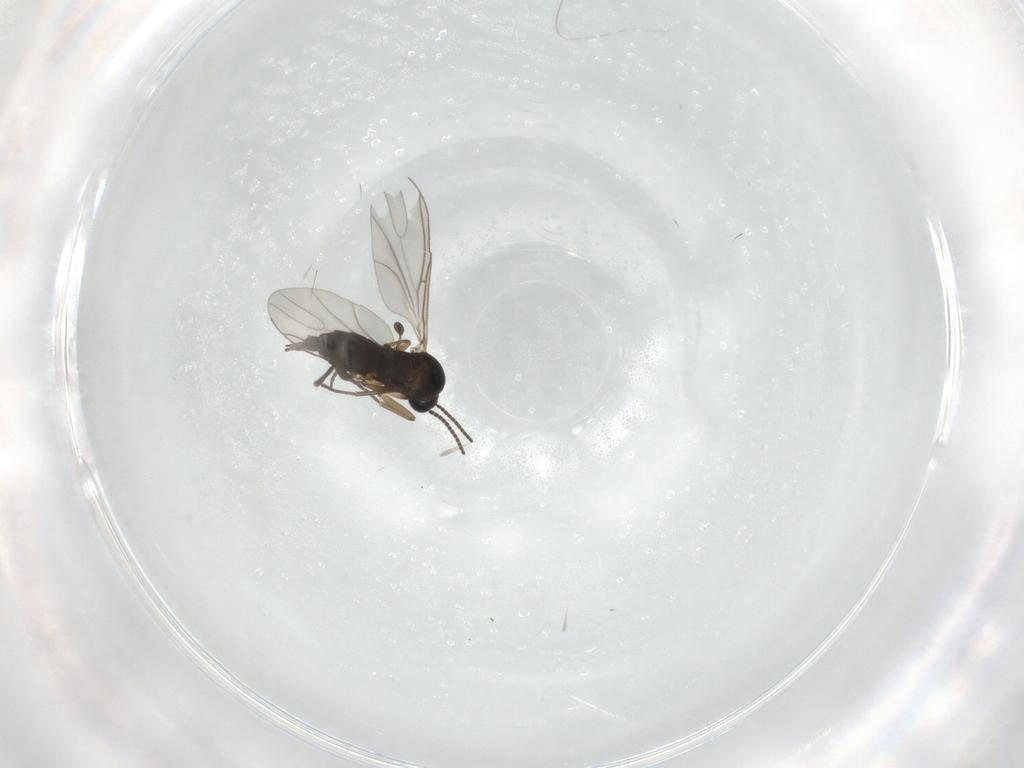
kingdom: Animalia
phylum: Arthropoda
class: Insecta
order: Diptera
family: Sciaridae
